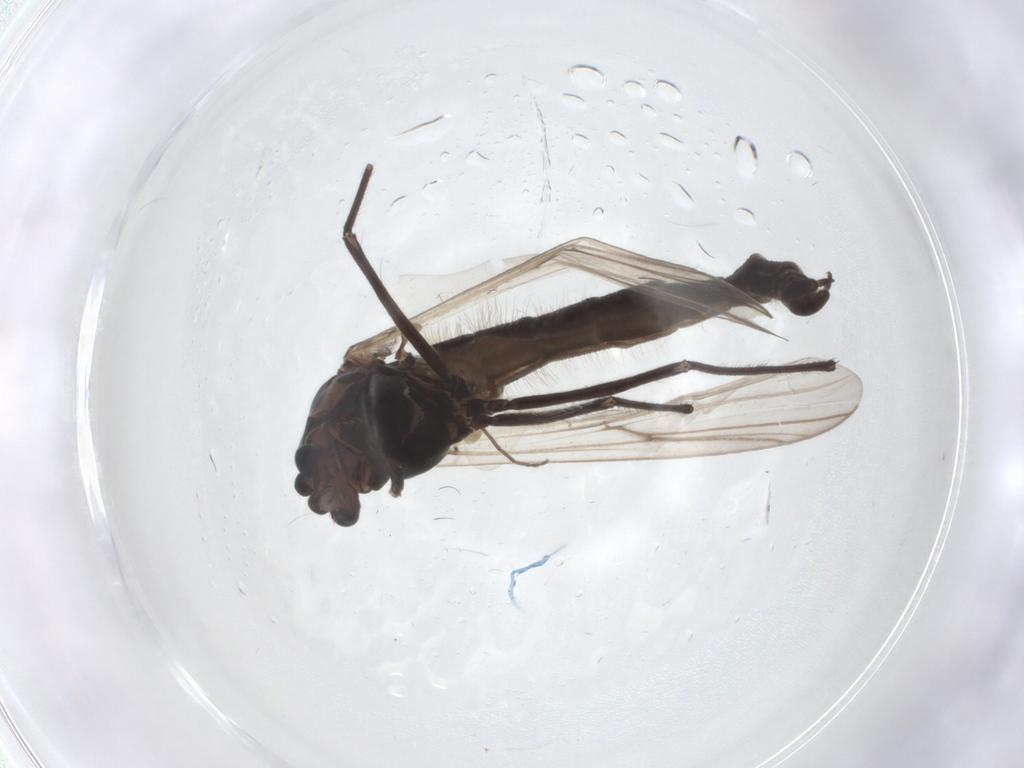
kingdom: Animalia
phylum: Arthropoda
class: Insecta
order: Diptera
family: Chironomidae
